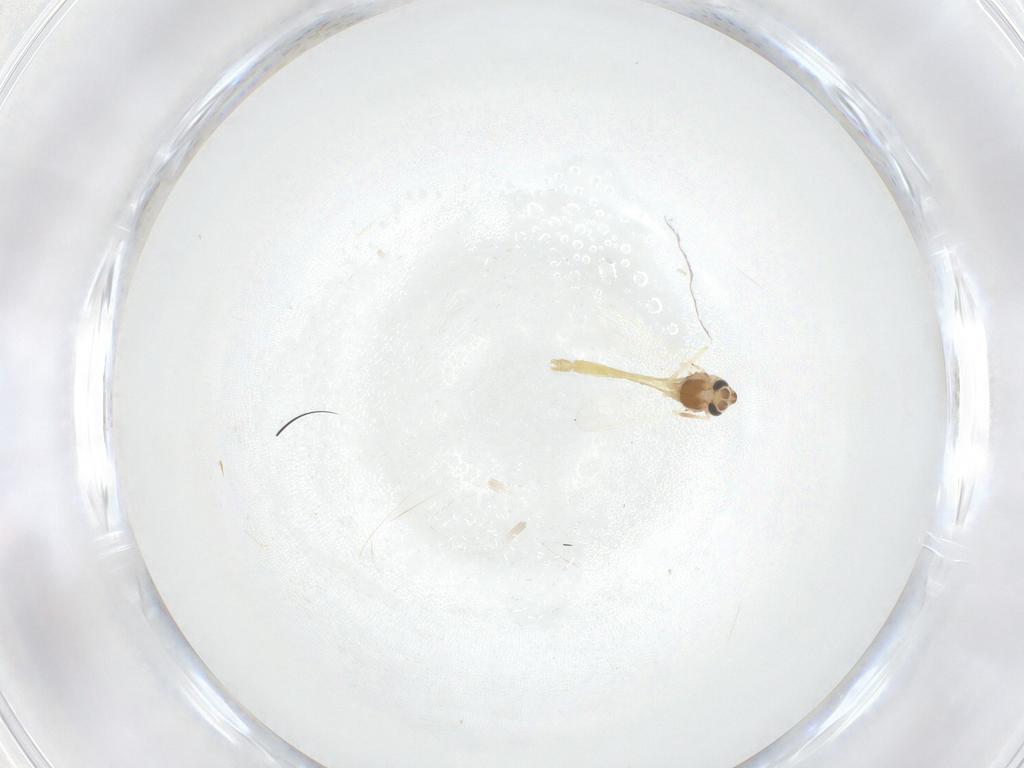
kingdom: Animalia
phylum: Arthropoda
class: Insecta
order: Diptera
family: Chironomidae
